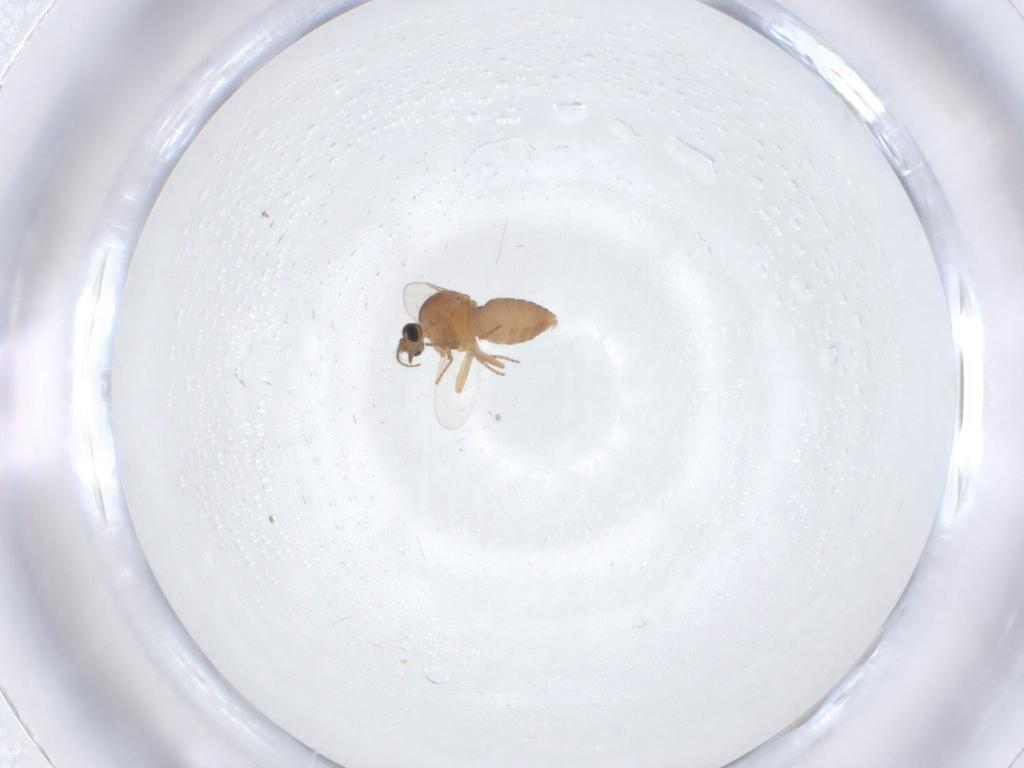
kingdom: Animalia
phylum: Arthropoda
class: Insecta
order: Diptera
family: Ceratopogonidae
